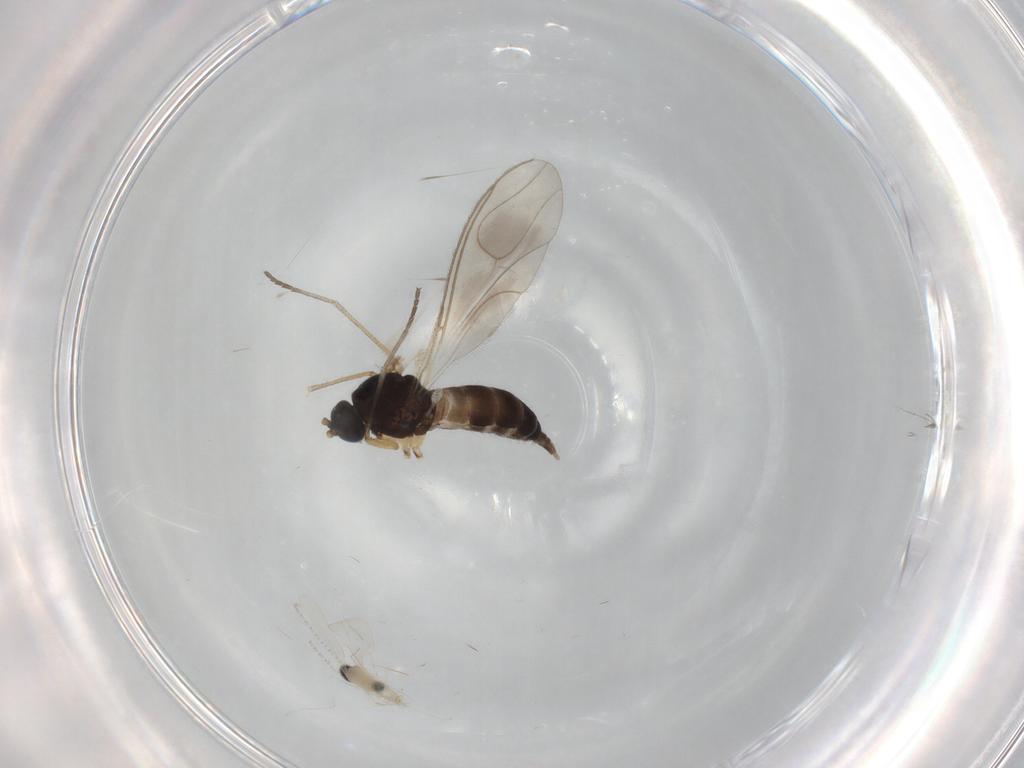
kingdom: Animalia
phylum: Arthropoda
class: Insecta
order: Diptera
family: Sciaridae
